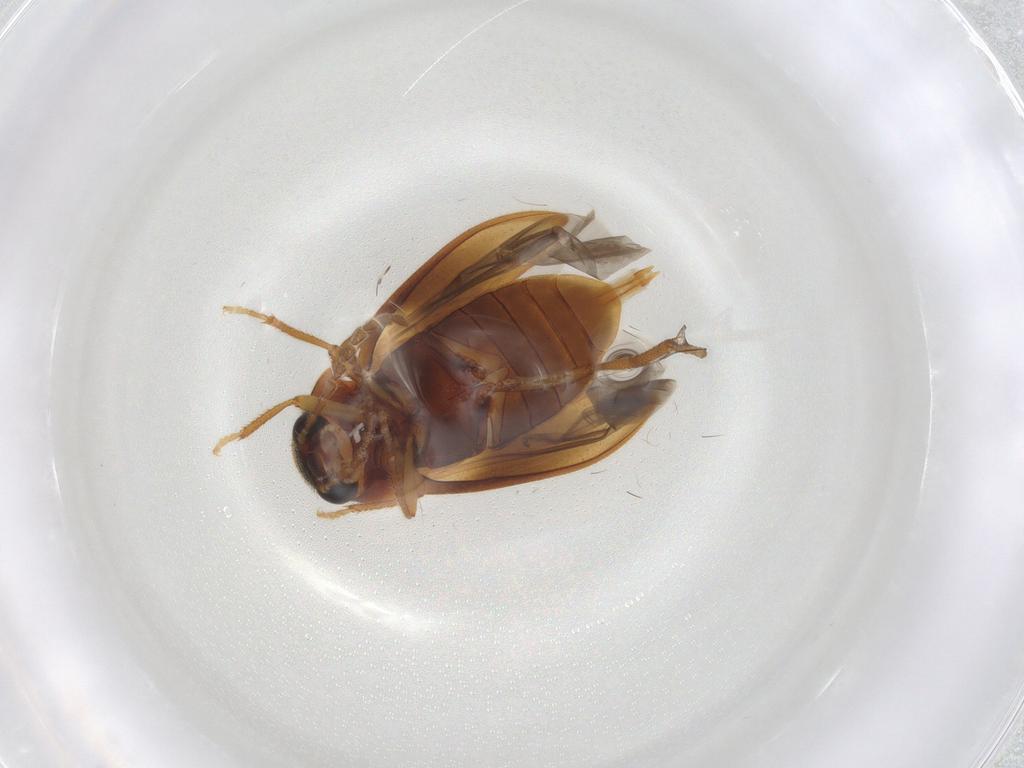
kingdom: Animalia
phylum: Arthropoda
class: Insecta
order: Coleoptera
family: Ptilodactylidae
